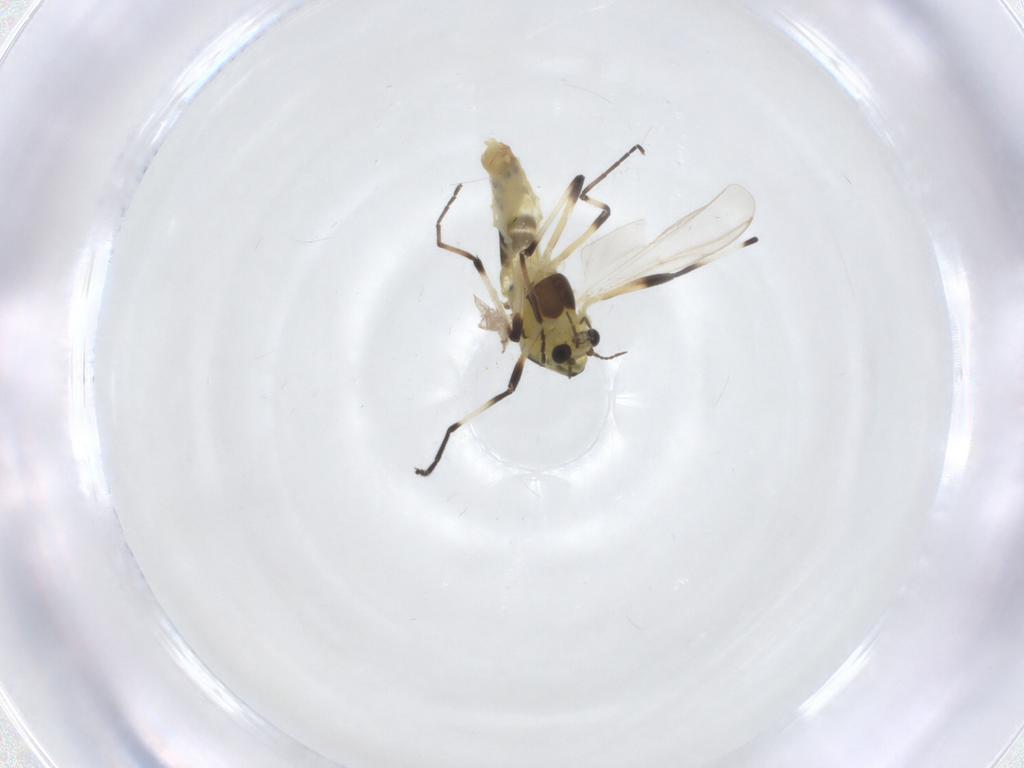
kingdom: Animalia
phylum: Arthropoda
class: Insecta
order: Diptera
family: Chironomidae
